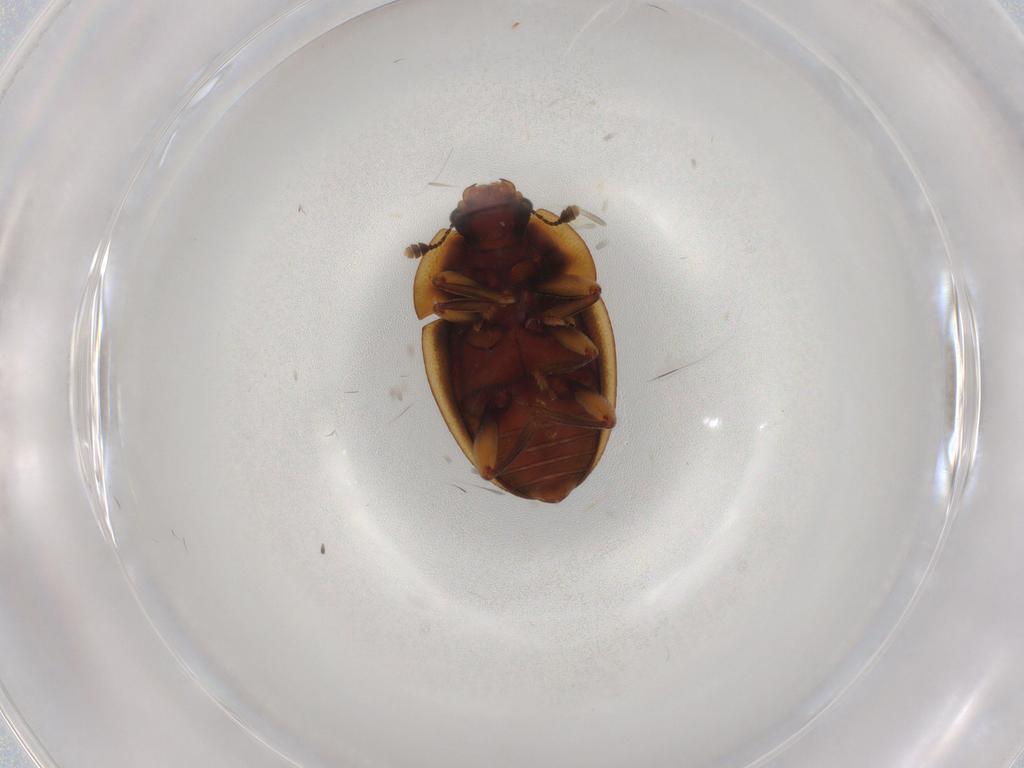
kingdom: Animalia
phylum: Arthropoda
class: Insecta
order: Coleoptera
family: Nitidulidae
